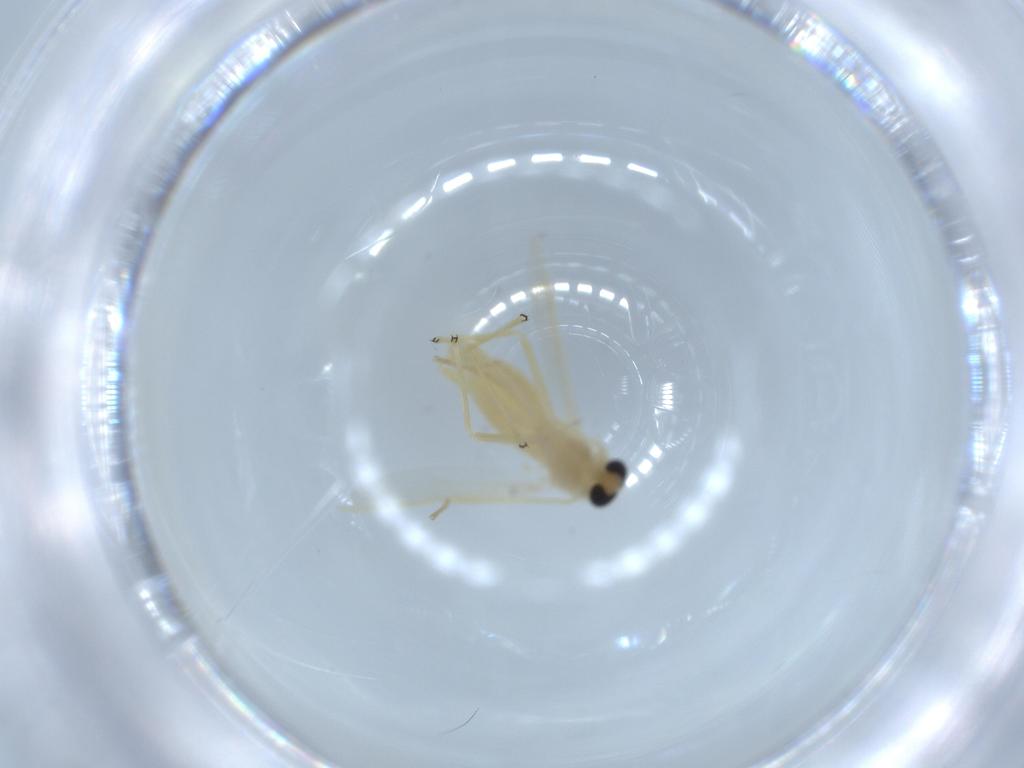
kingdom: Animalia
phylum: Arthropoda
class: Insecta
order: Diptera
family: Chironomidae
